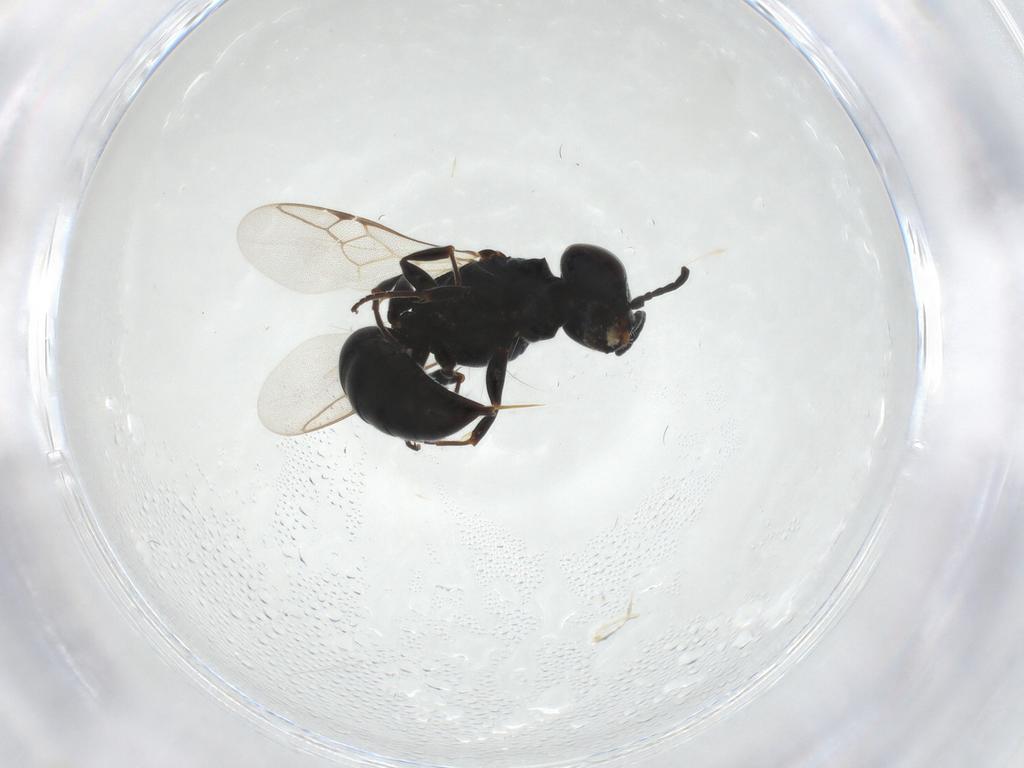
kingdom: Animalia
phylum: Arthropoda
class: Insecta
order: Hymenoptera
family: Crabronidae
